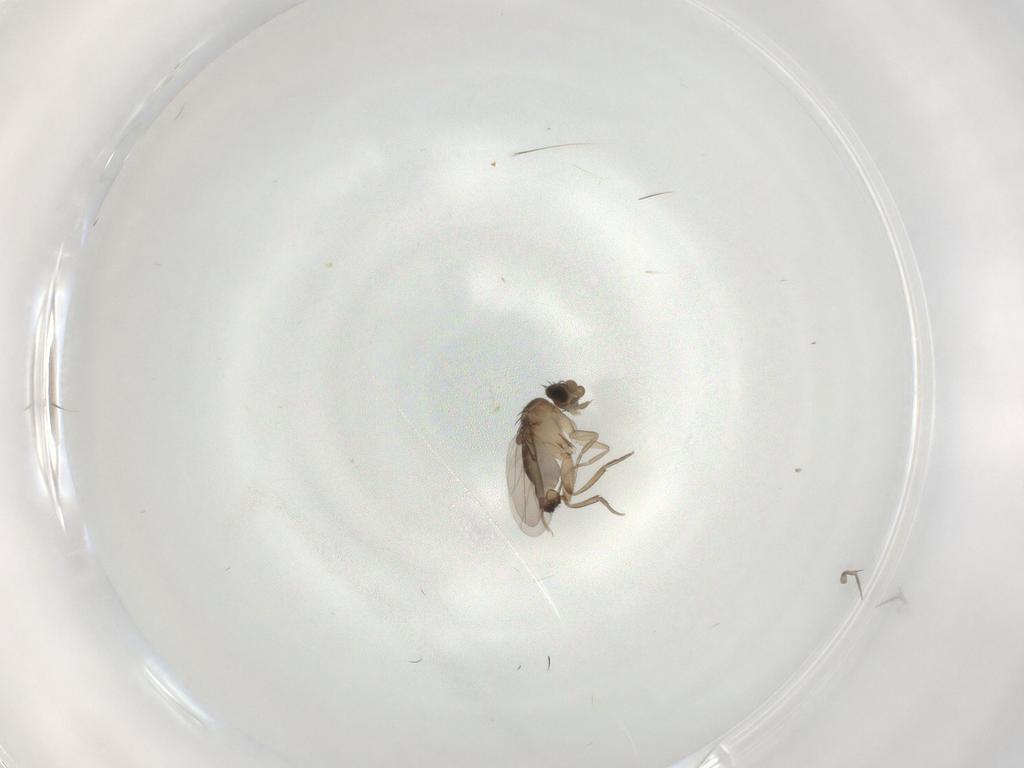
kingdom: Animalia
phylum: Arthropoda
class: Insecta
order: Diptera
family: Phoridae
